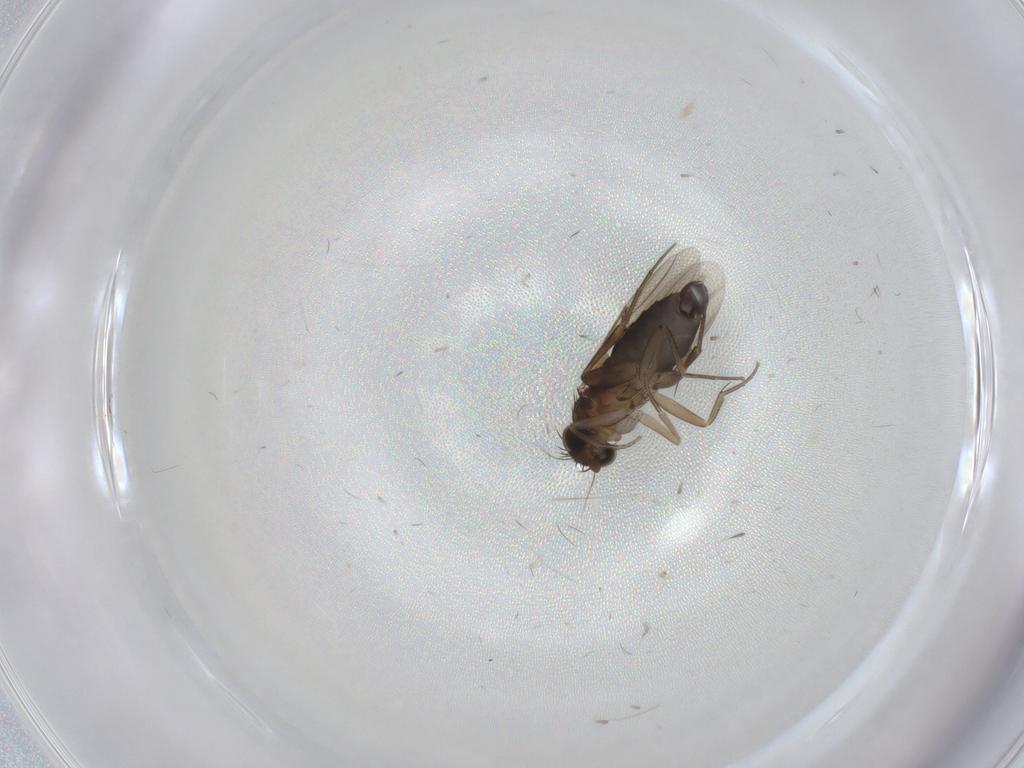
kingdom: Animalia
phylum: Arthropoda
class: Insecta
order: Diptera
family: Phoridae
